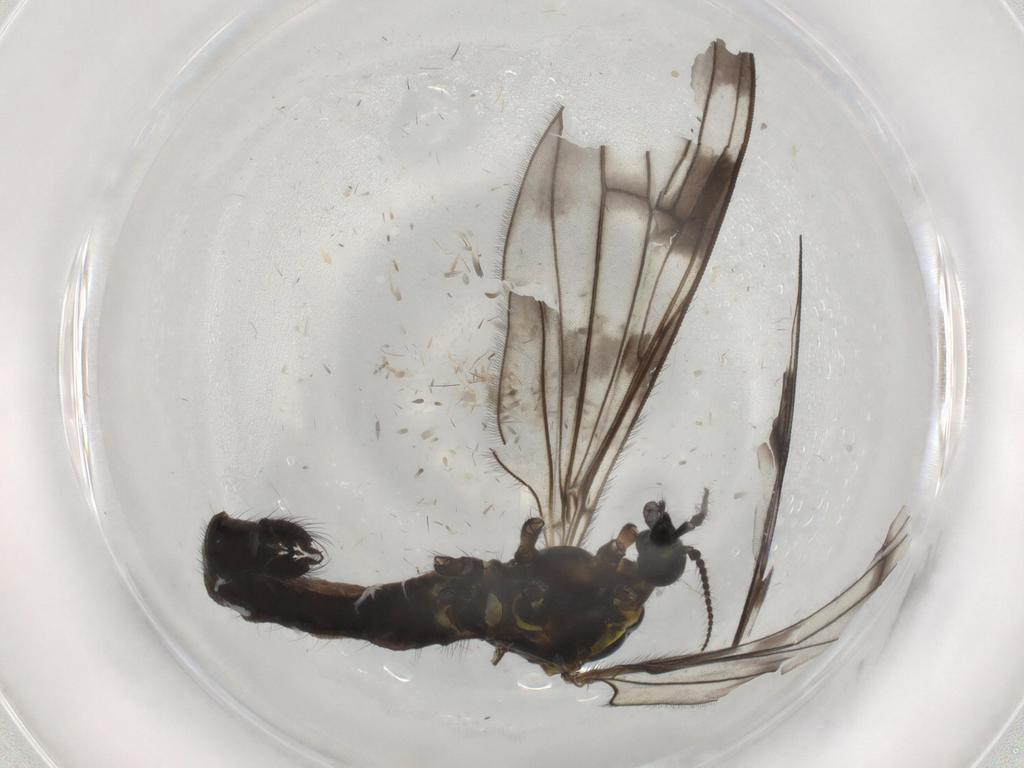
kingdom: Animalia
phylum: Arthropoda
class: Insecta
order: Diptera
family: Limoniidae
